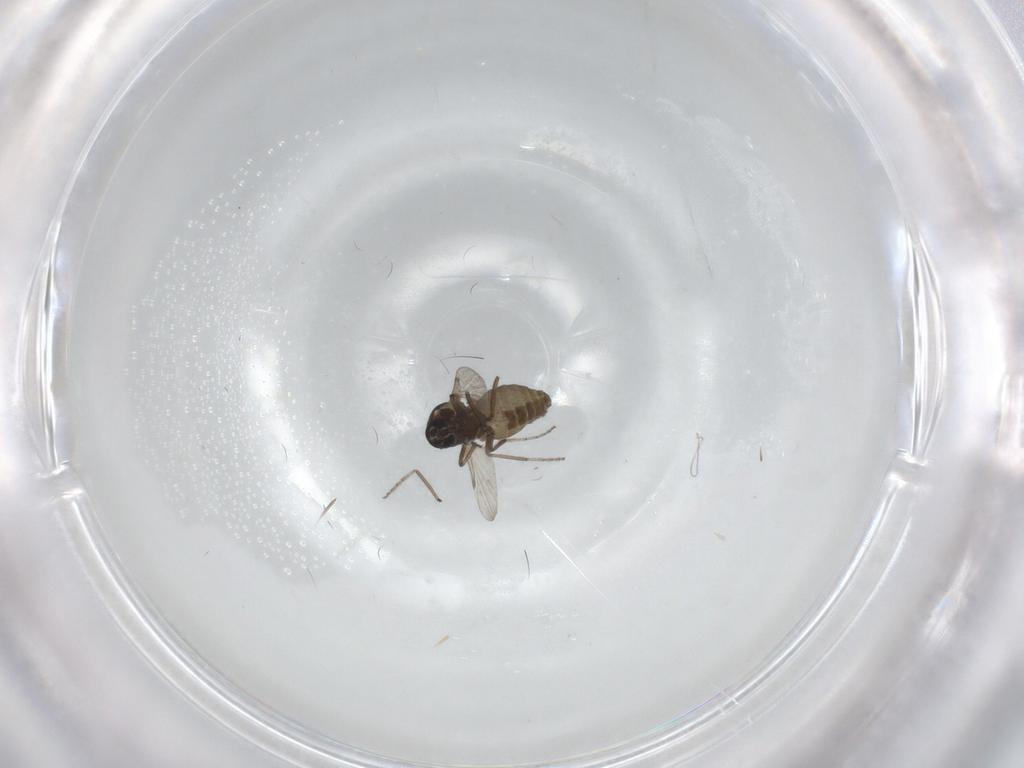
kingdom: Animalia
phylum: Arthropoda
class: Insecta
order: Diptera
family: Ceratopogonidae
